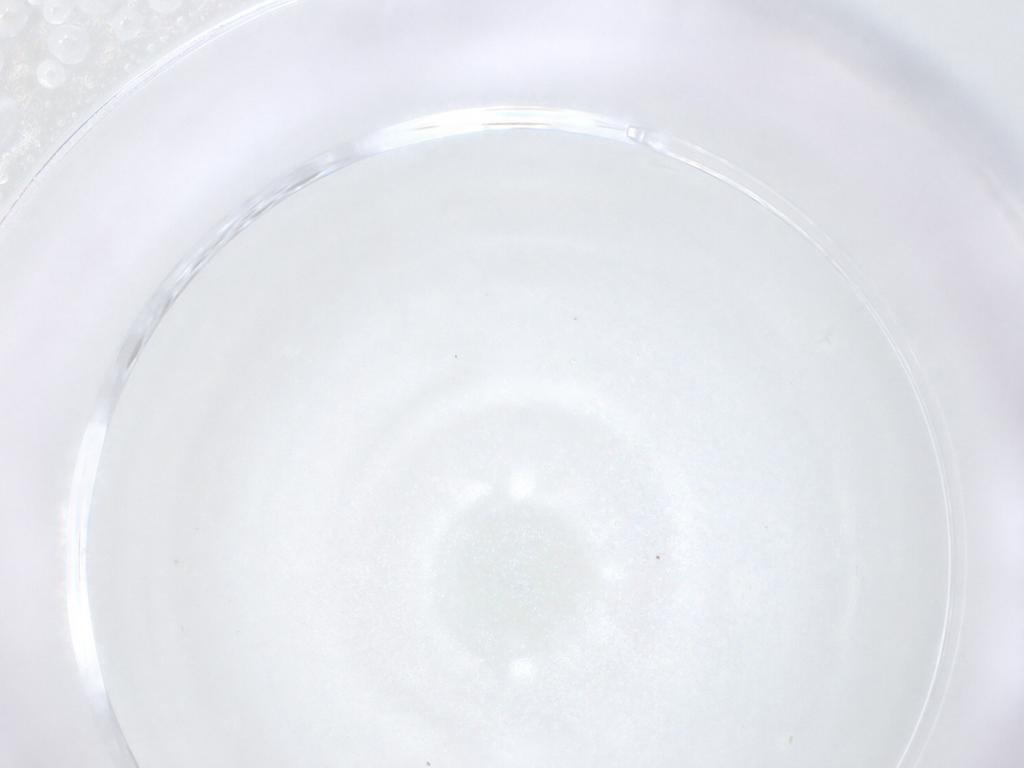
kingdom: Animalia
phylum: Arthropoda
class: Insecta
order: Diptera
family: Phoridae
